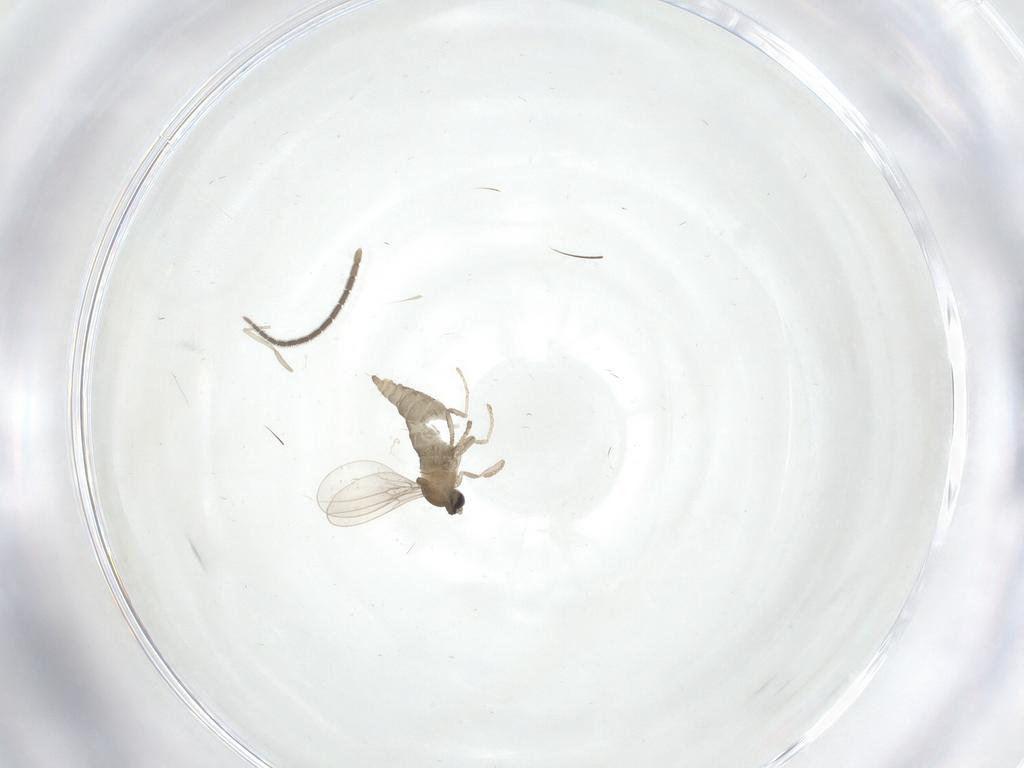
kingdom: Animalia
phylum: Arthropoda
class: Insecta
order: Diptera
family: Cecidomyiidae
